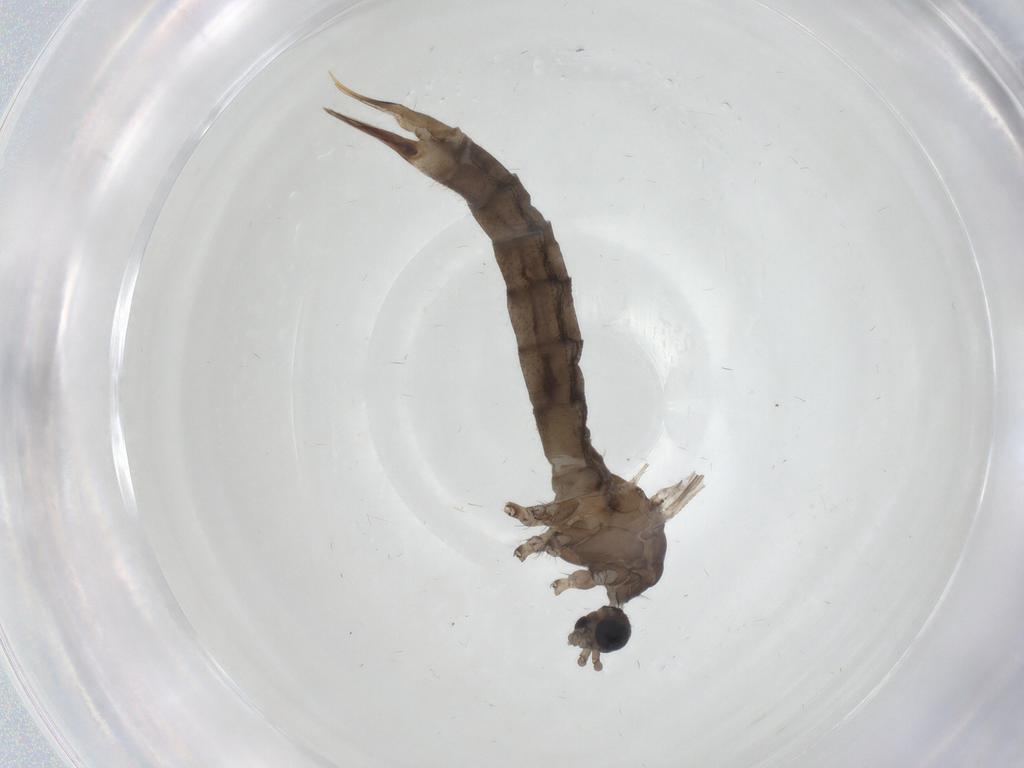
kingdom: Animalia
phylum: Arthropoda
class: Insecta
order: Diptera
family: Limoniidae
